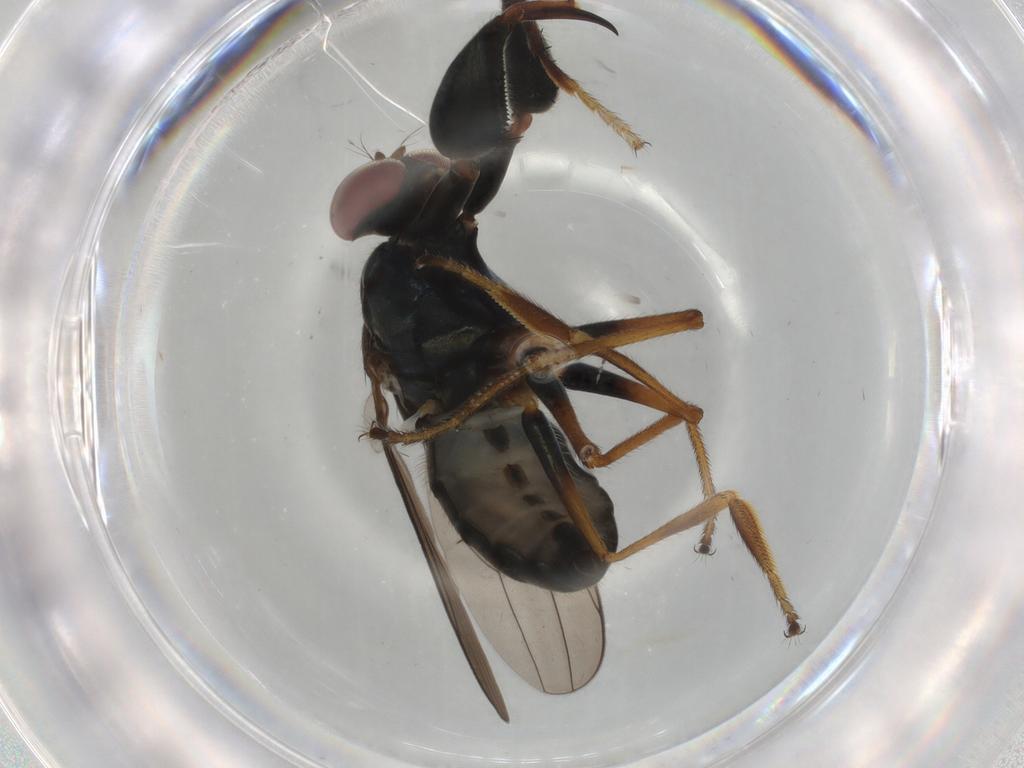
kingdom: Animalia
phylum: Arthropoda
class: Insecta
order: Diptera
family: Ephydridae
